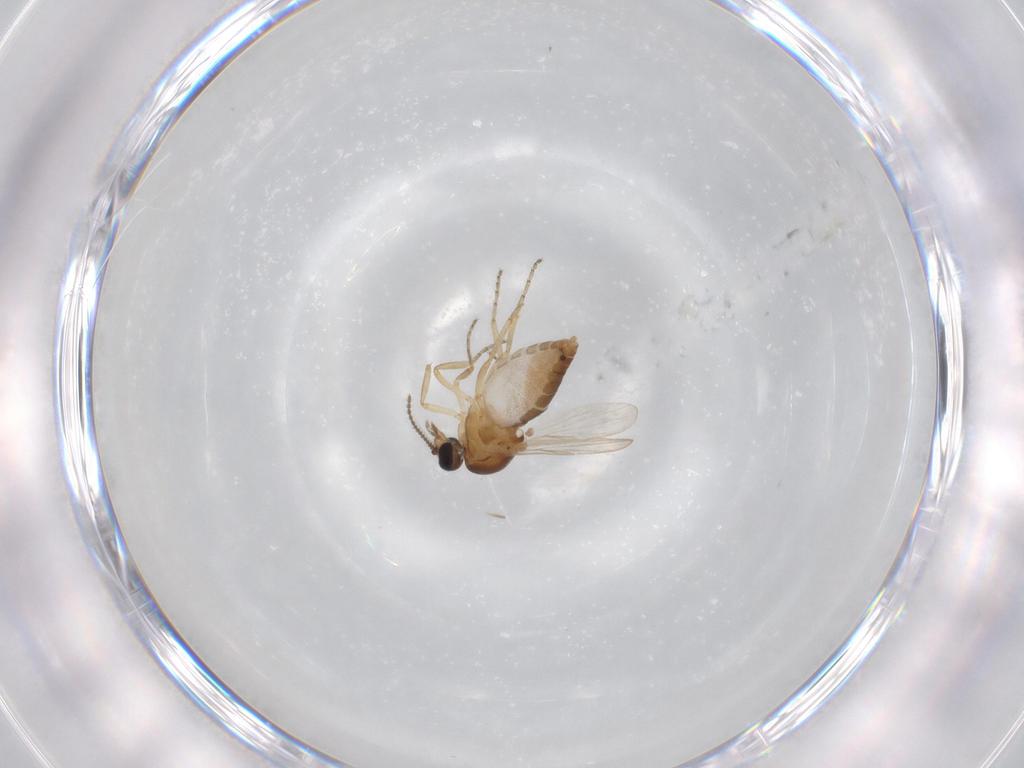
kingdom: Animalia
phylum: Arthropoda
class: Insecta
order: Diptera
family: Ceratopogonidae
